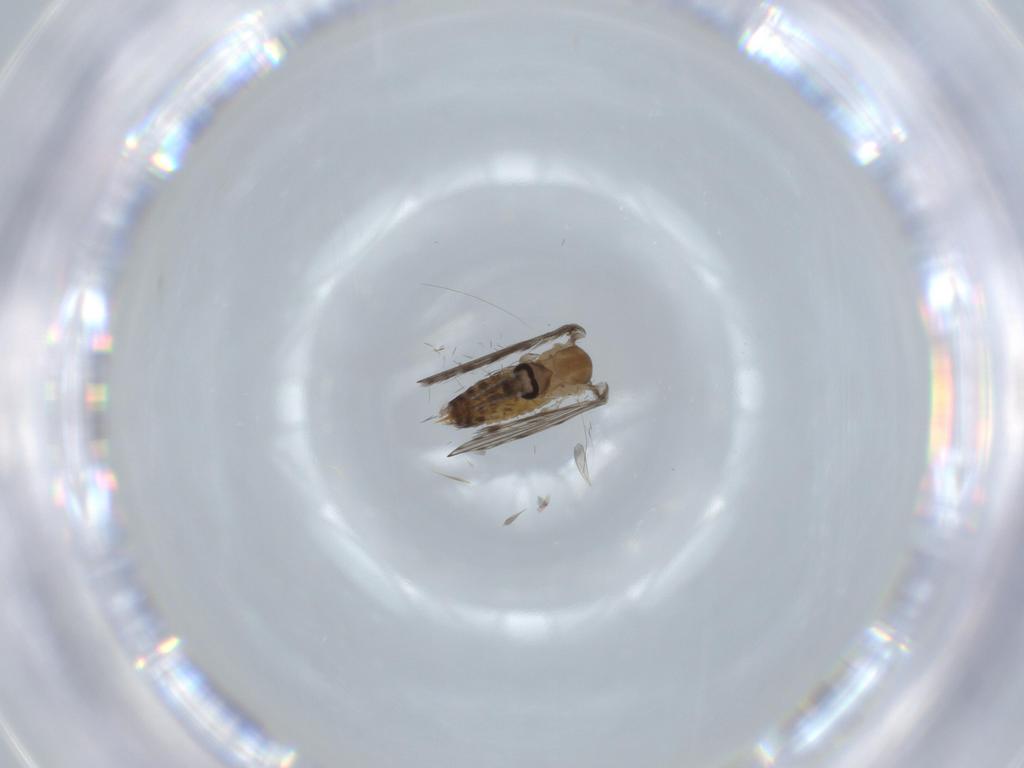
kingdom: Animalia
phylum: Arthropoda
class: Insecta
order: Diptera
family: Psychodidae
